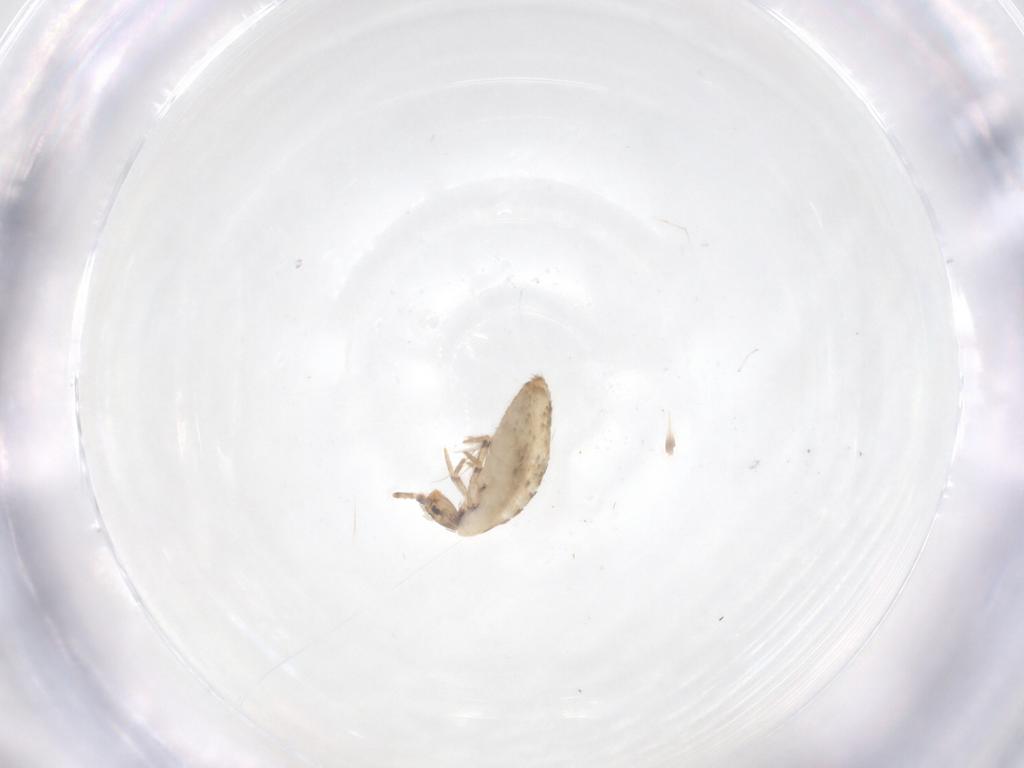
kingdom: Animalia
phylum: Arthropoda
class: Collembola
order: Entomobryomorpha
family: Entomobryidae
